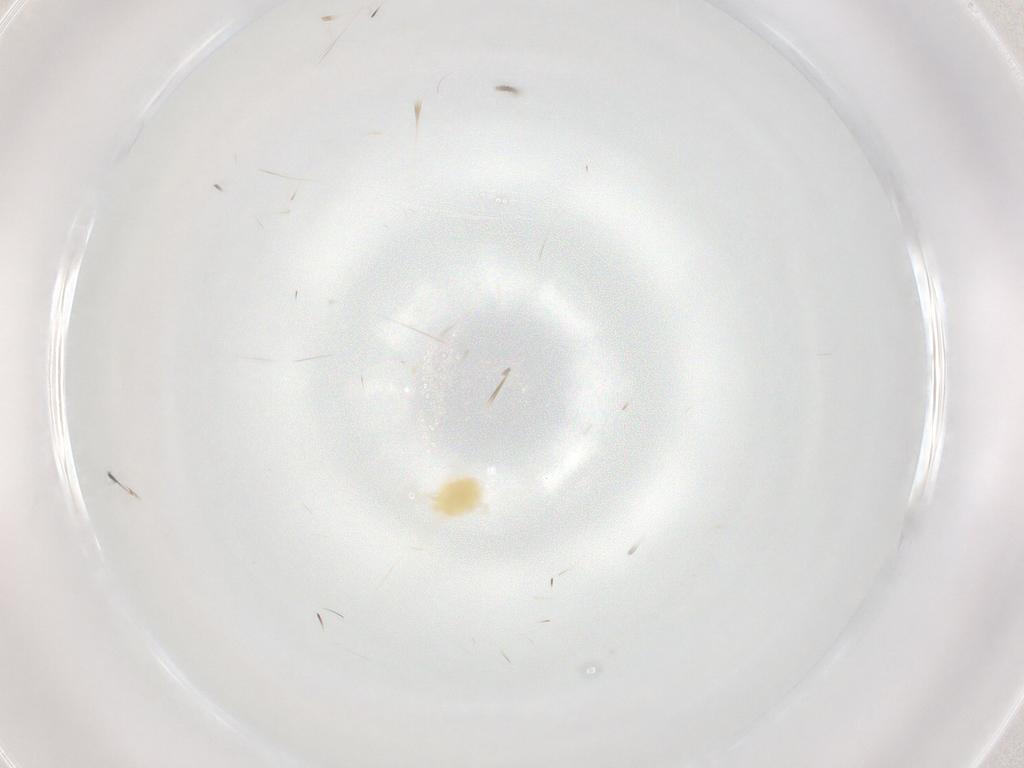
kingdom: Animalia
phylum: Arthropoda
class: Arachnida
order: Trombidiformes
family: Tetranychidae
